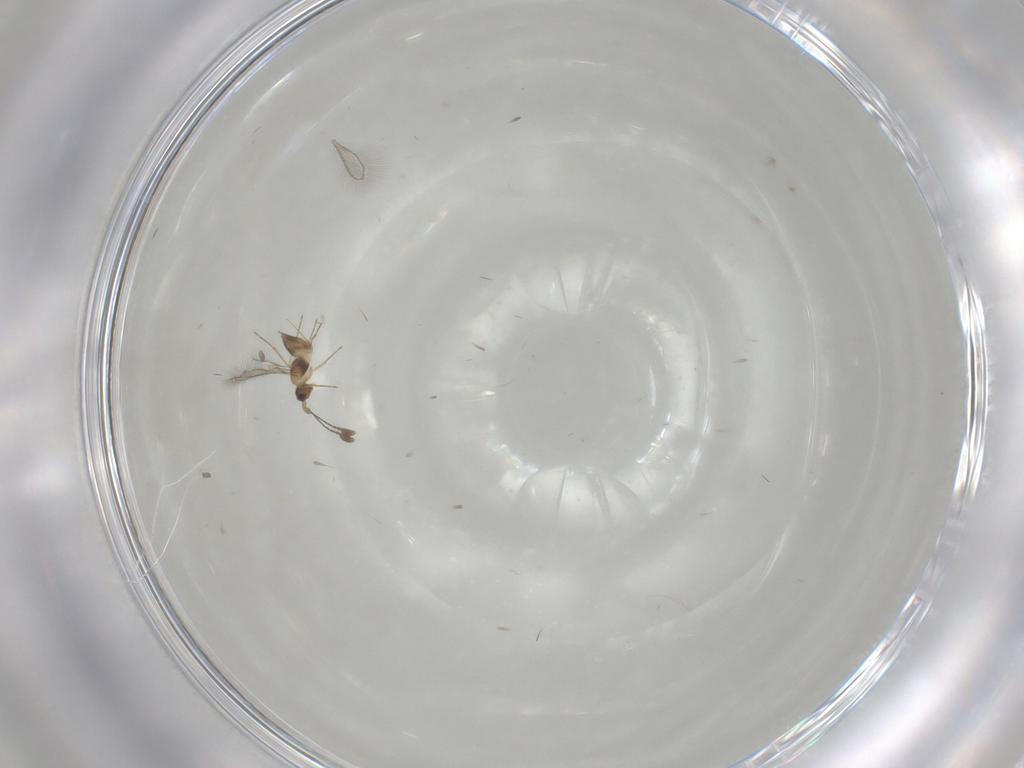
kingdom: Animalia
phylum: Arthropoda
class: Insecta
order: Hymenoptera
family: Mymaridae
